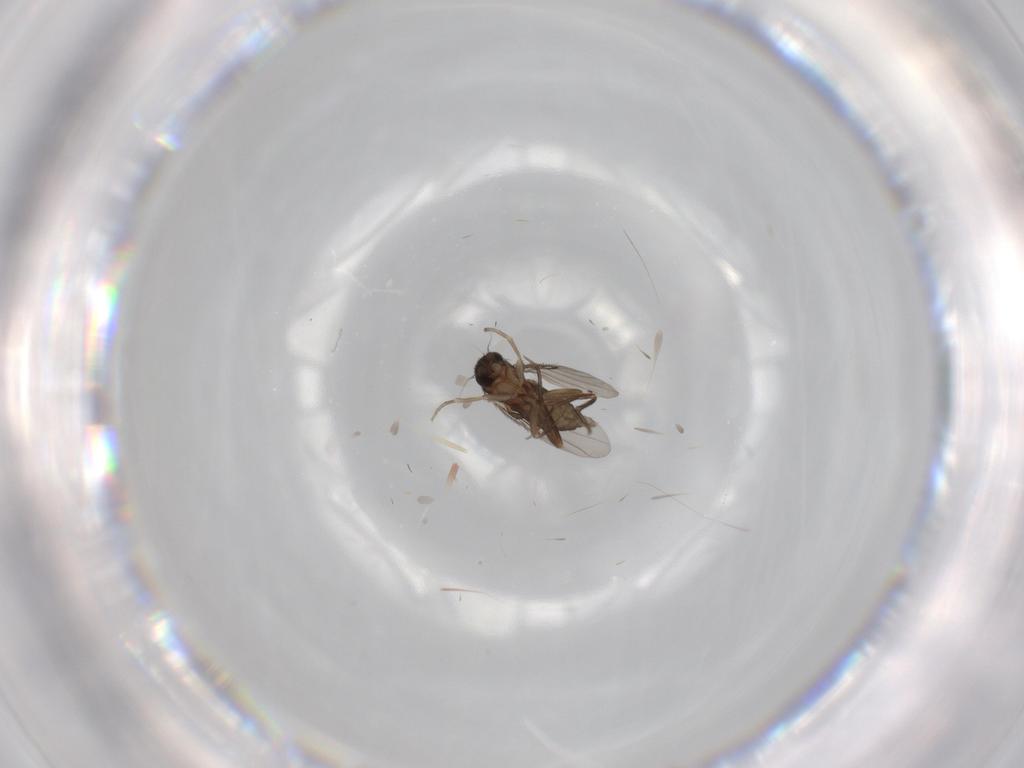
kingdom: Animalia
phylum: Arthropoda
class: Insecta
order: Diptera
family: Phoridae
